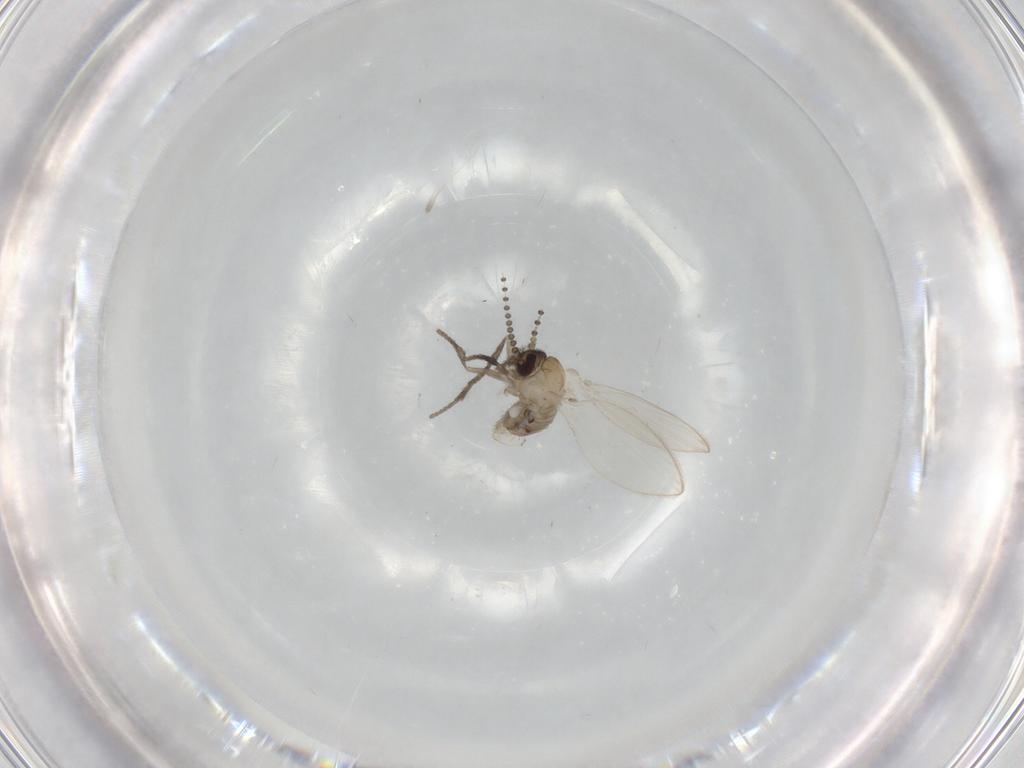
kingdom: Animalia
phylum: Arthropoda
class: Insecta
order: Diptera
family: Psychodidae
